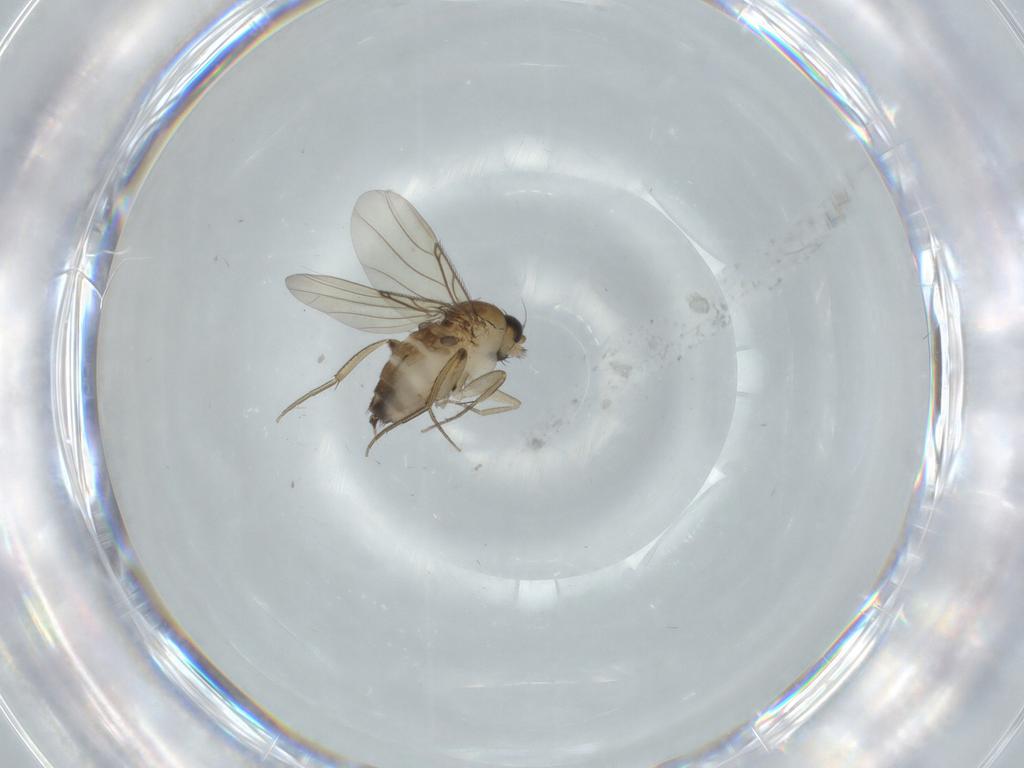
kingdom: Animalia
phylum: Arthropoda
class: Insecta
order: Diptera
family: Phoridae
